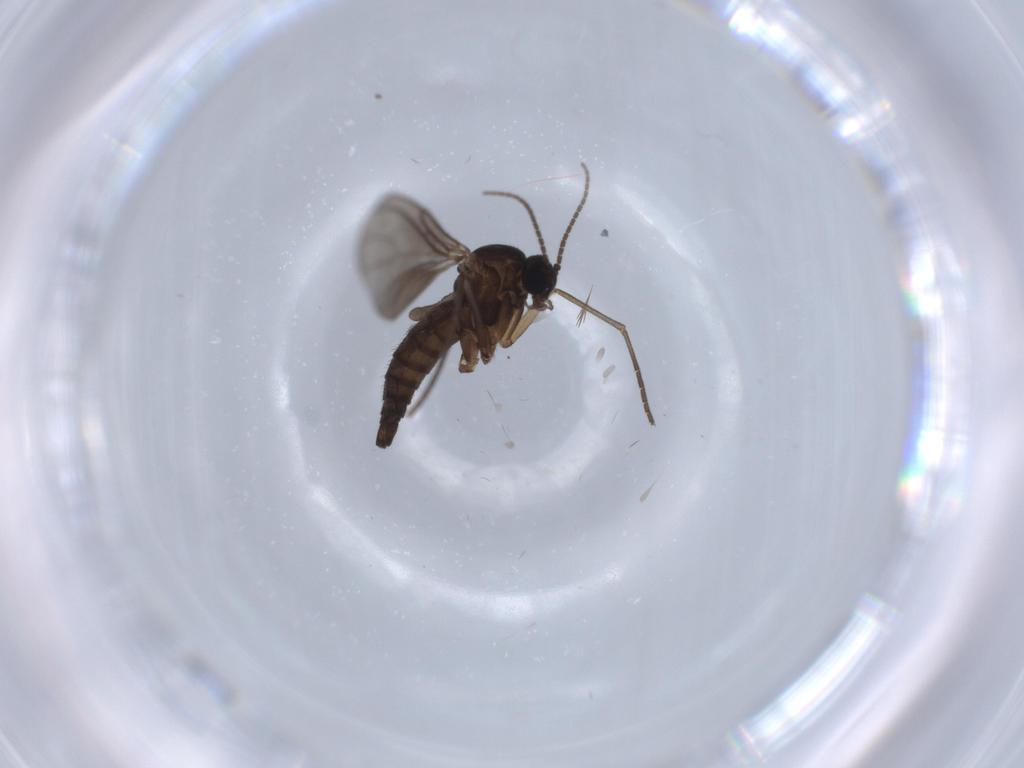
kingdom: Animalia
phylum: Arthropoda
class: Insecta
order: Diptera
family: Sciaridae
